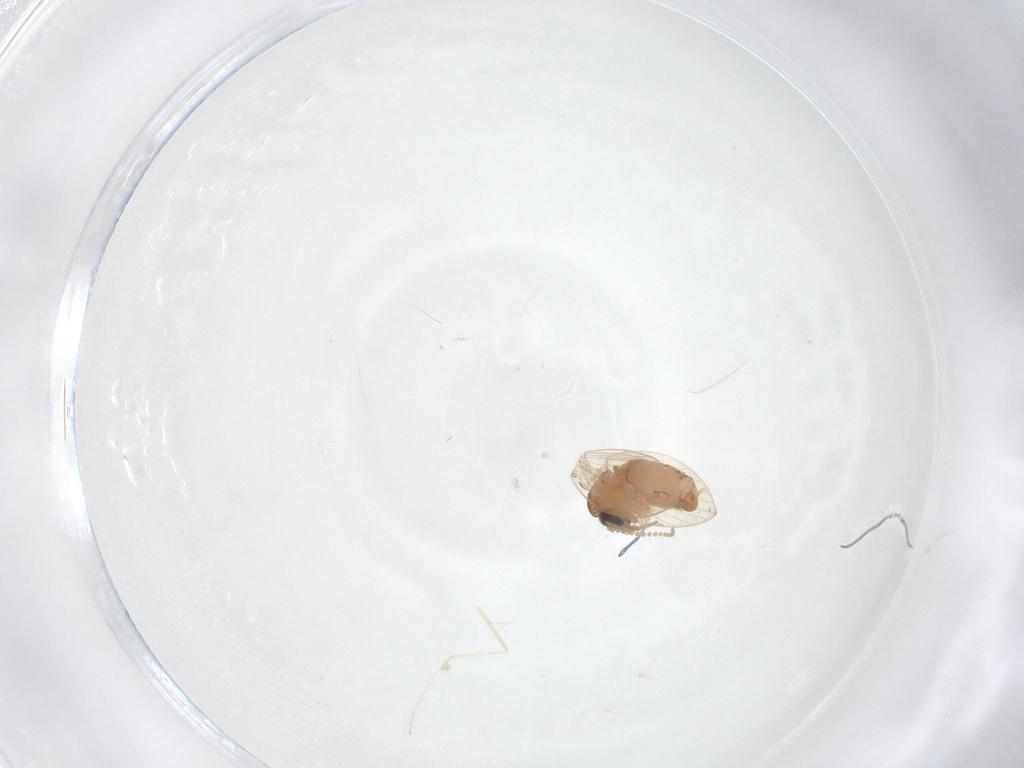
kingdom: Animalia
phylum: Arthropoda
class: Insecta
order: Diptera
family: Cecidomyiidae
